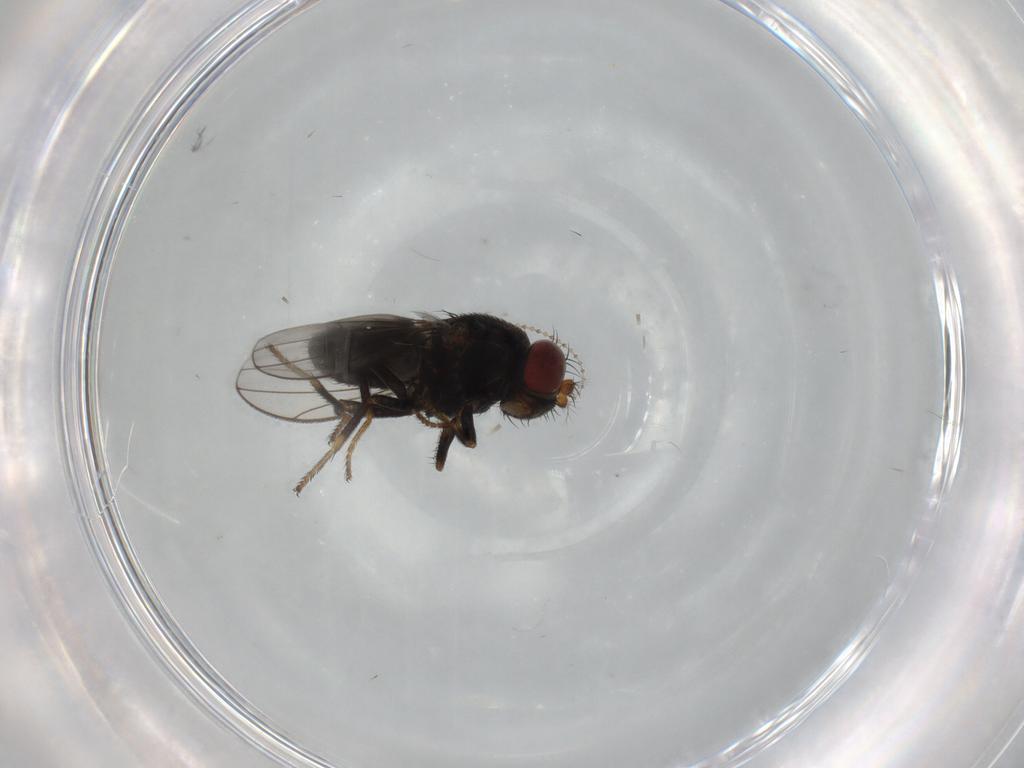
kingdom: Animalia
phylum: Arthropoda
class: Insecta
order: Diptera
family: Ephydridae
